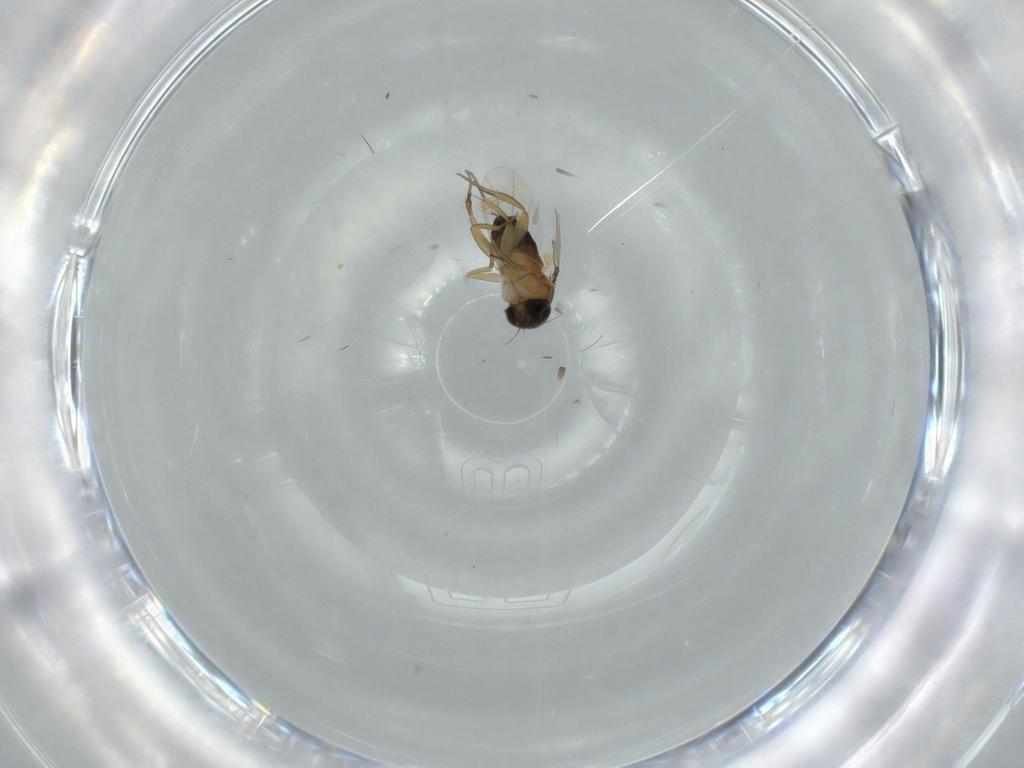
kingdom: Animalia
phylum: Arthropoda
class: Insecta
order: Diptera
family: Phoridae
